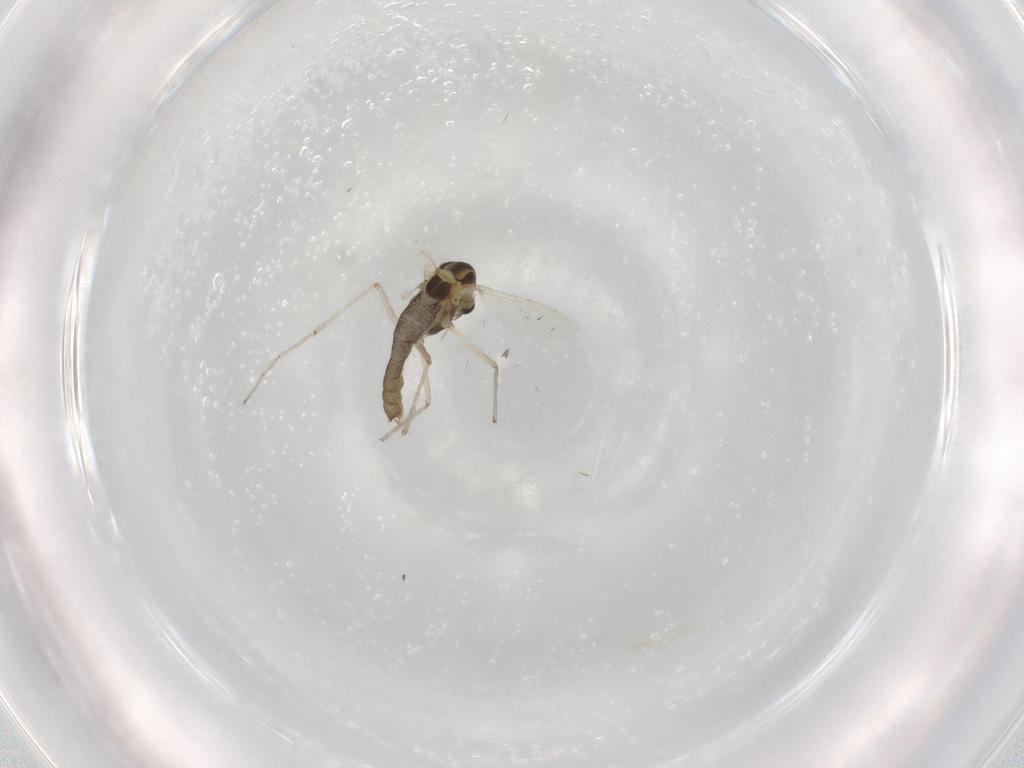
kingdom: Animalia
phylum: Arthropoda
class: Insecta
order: Diptera
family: Chironomidae
